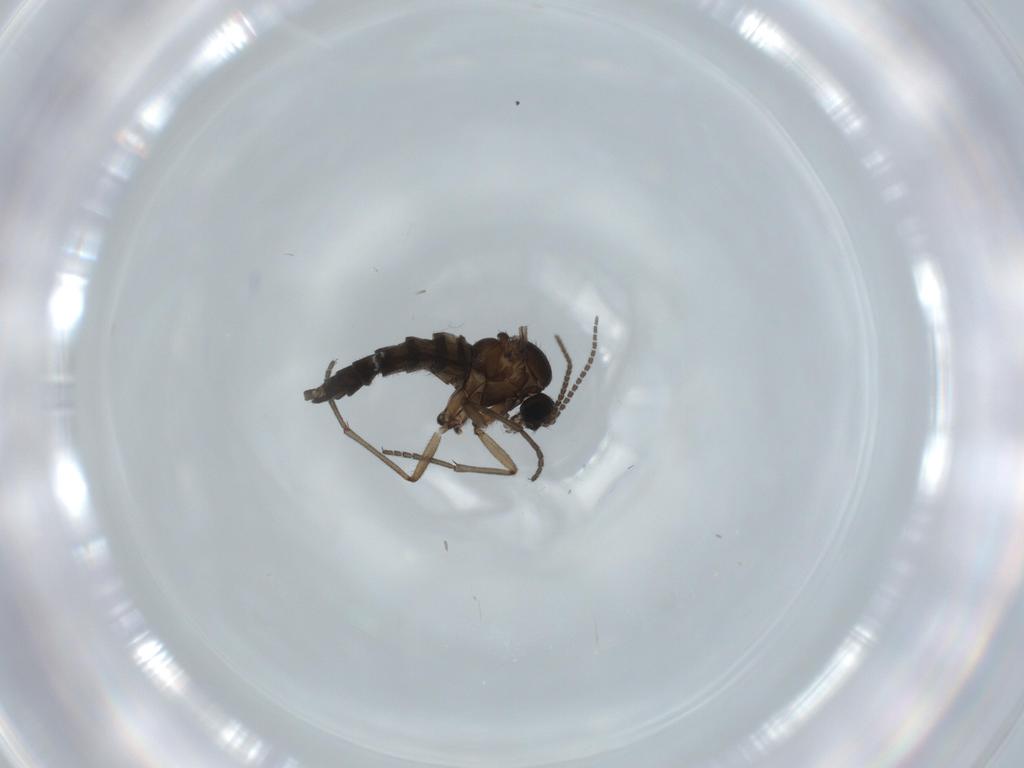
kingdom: Animalia
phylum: Arthropoda
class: Insecta
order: Diptera
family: Sciaridae
